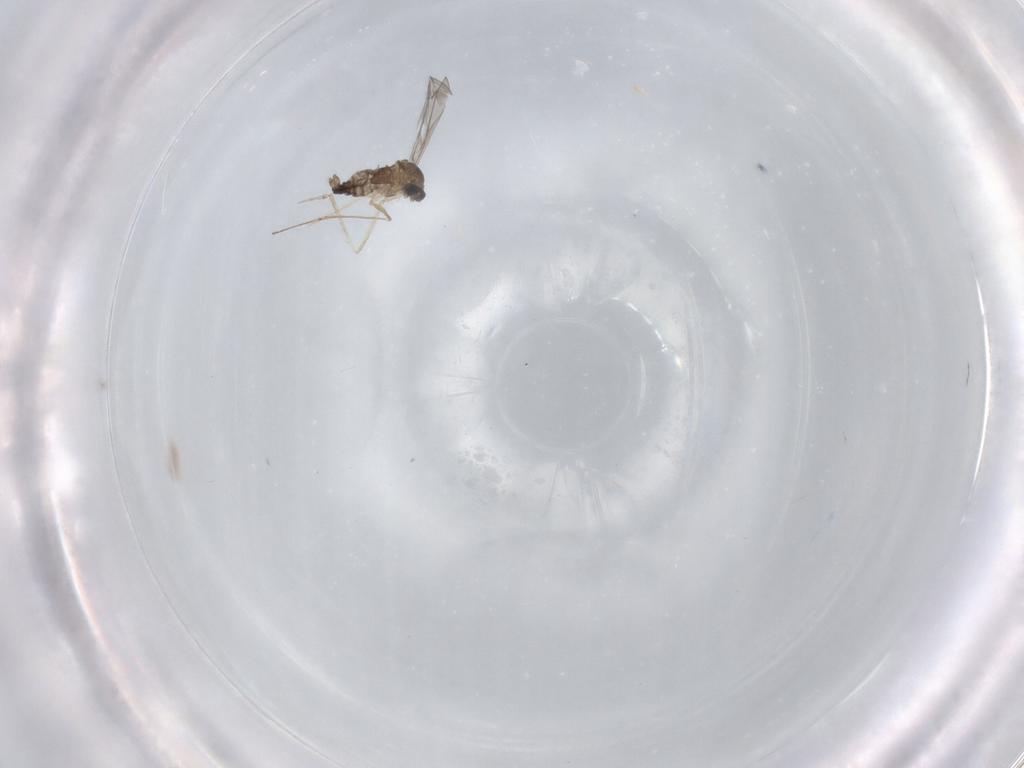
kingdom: Animalia
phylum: Arthropoda
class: Insecta
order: Diptera
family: Cecidomyiidae
